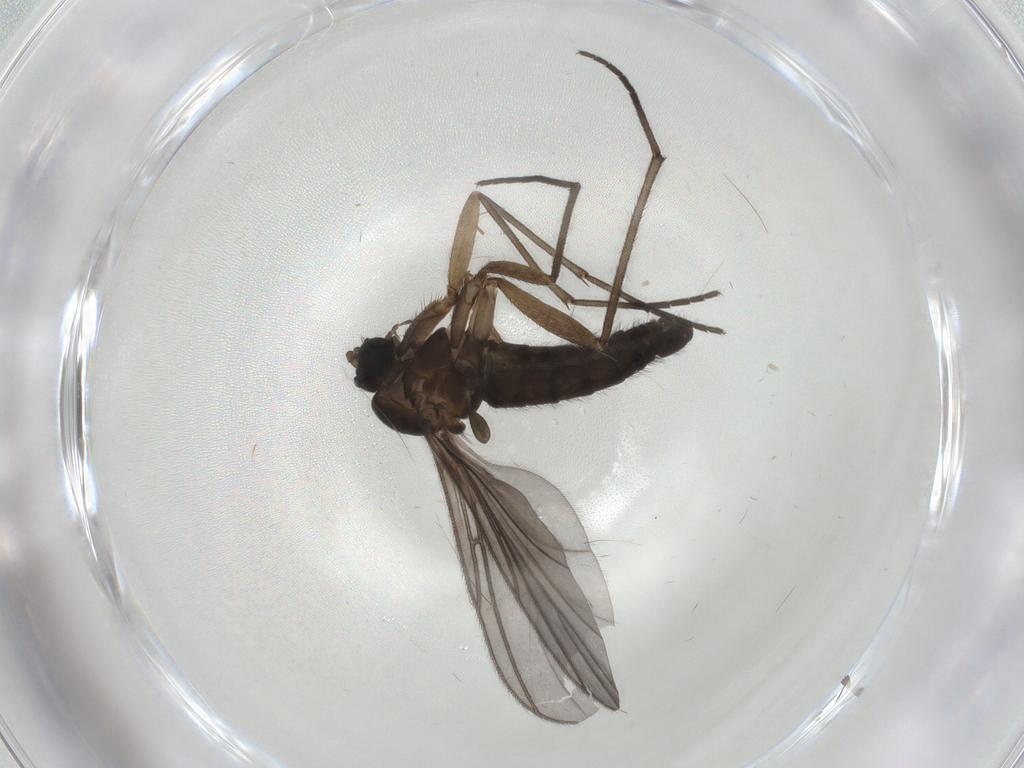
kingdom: Animalia
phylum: Arthropoda
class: Insecta
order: Diptera
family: Sciaridae
